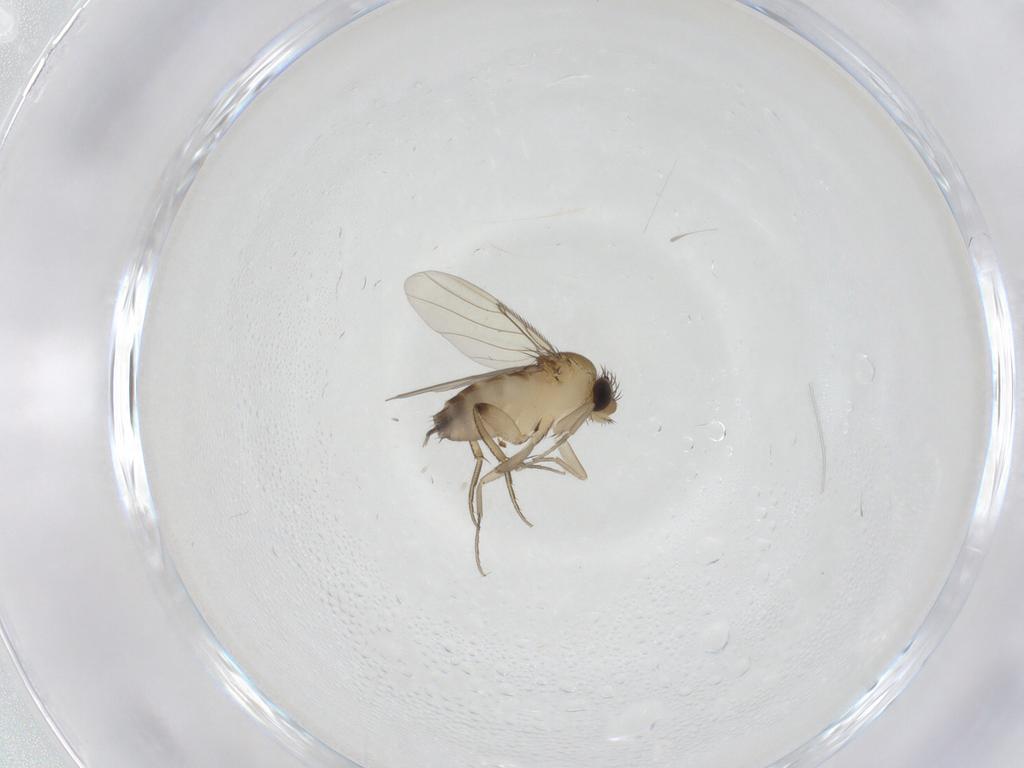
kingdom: Animalia
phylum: Arthropoda
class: Insecta
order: Diptera
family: Phoridae
